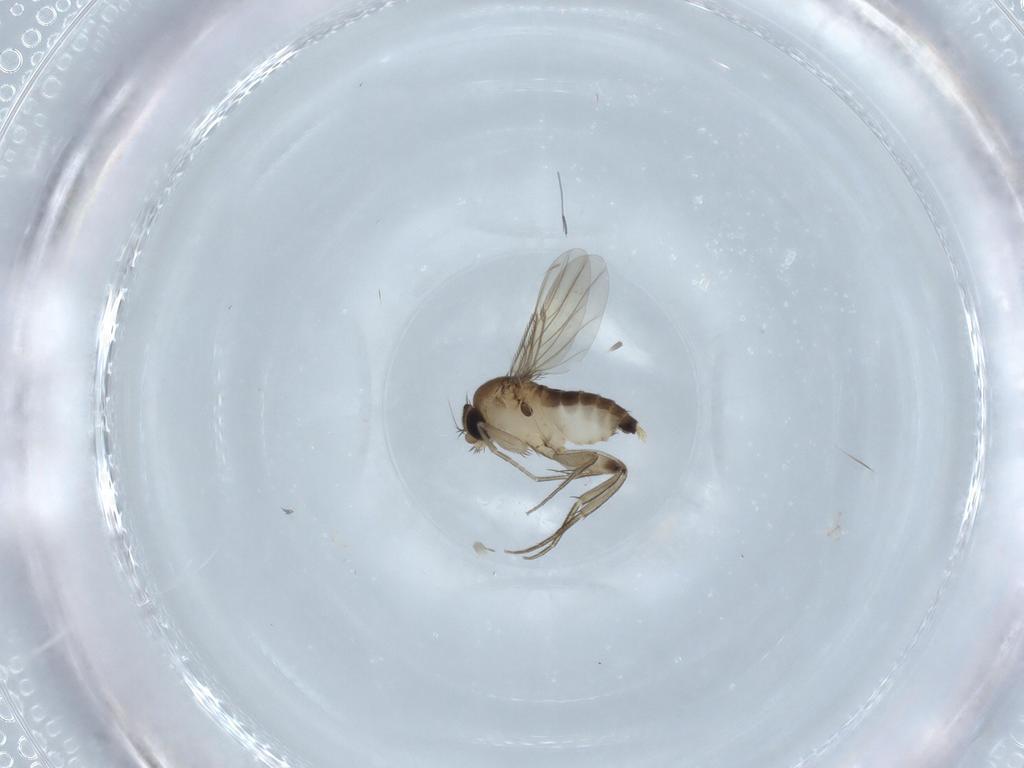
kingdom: Animalia
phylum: Arthropoda
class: Insecta
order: Diptera
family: Phoridae
